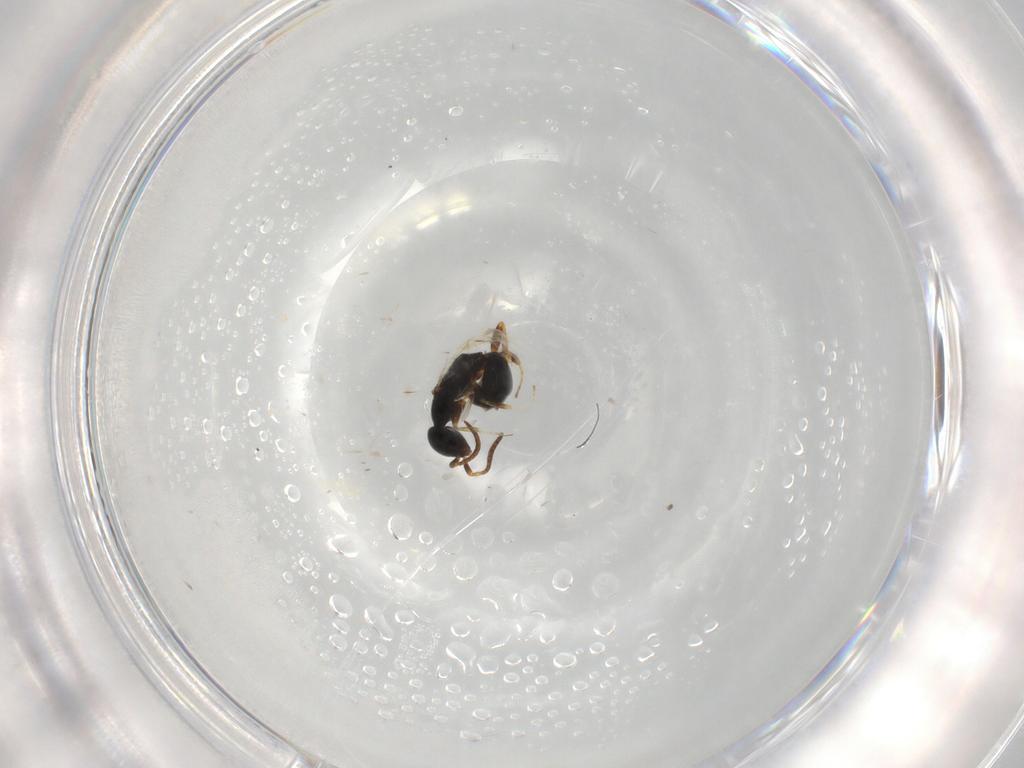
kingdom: Animalia
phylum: Arthropoda
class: Insecta
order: Hymenoptera
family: Bethylidae
